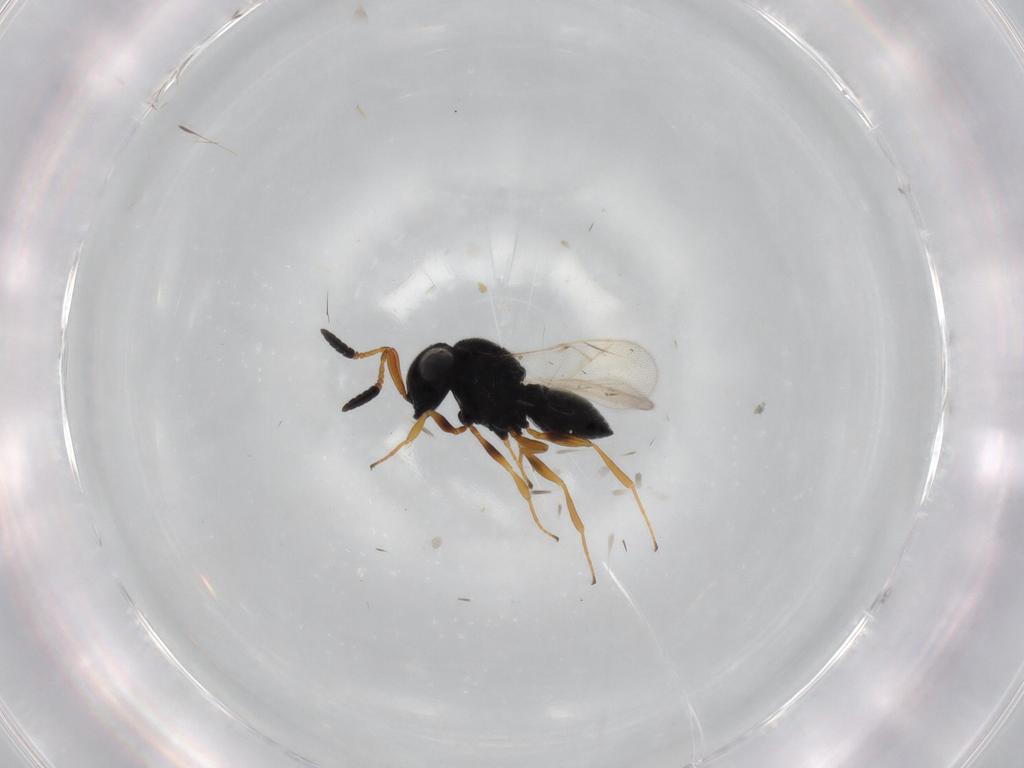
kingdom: Animalia
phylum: Arthropoda
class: Insecta
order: Hymenoptera
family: Scelionidae
